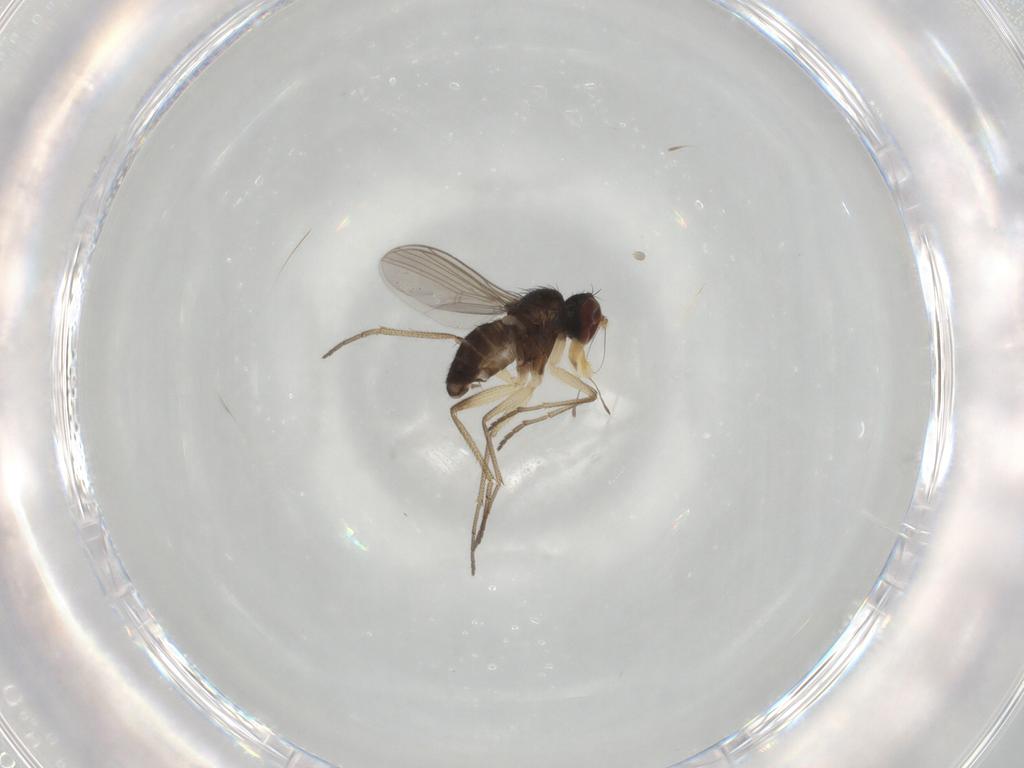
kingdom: Animalia
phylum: Arthropoda
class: Insecta
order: Diptera
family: Dolichopodidae
